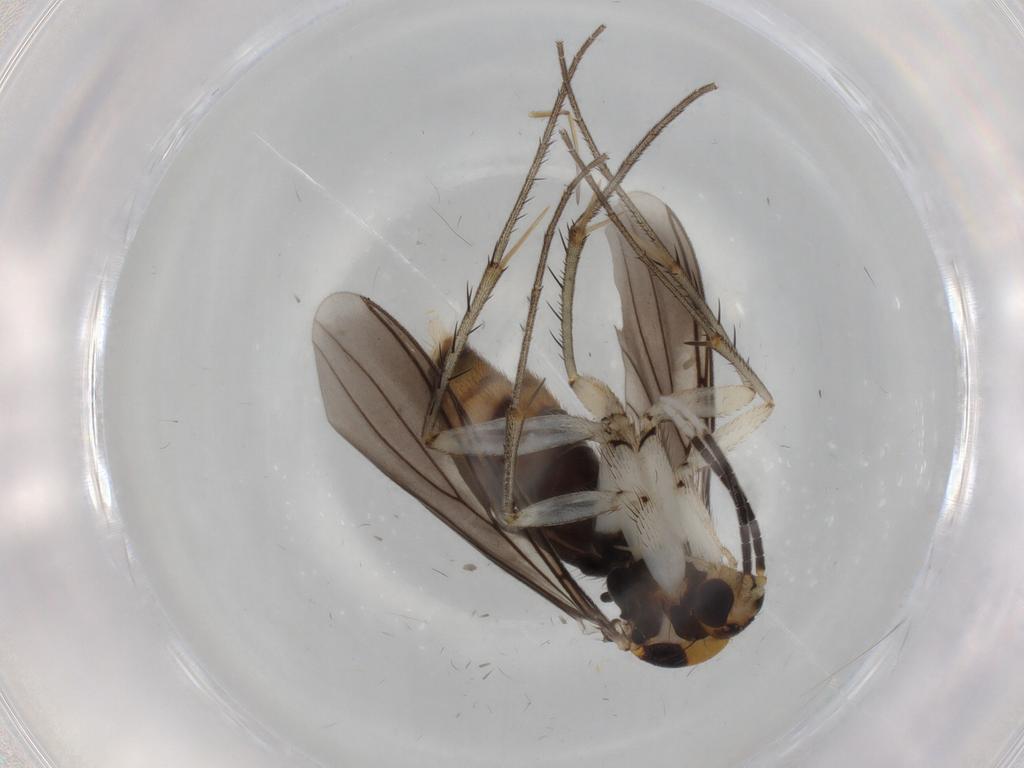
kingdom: Animalia
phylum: Arthropoda
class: Insecta
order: Diptera
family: Mycetophilidae
